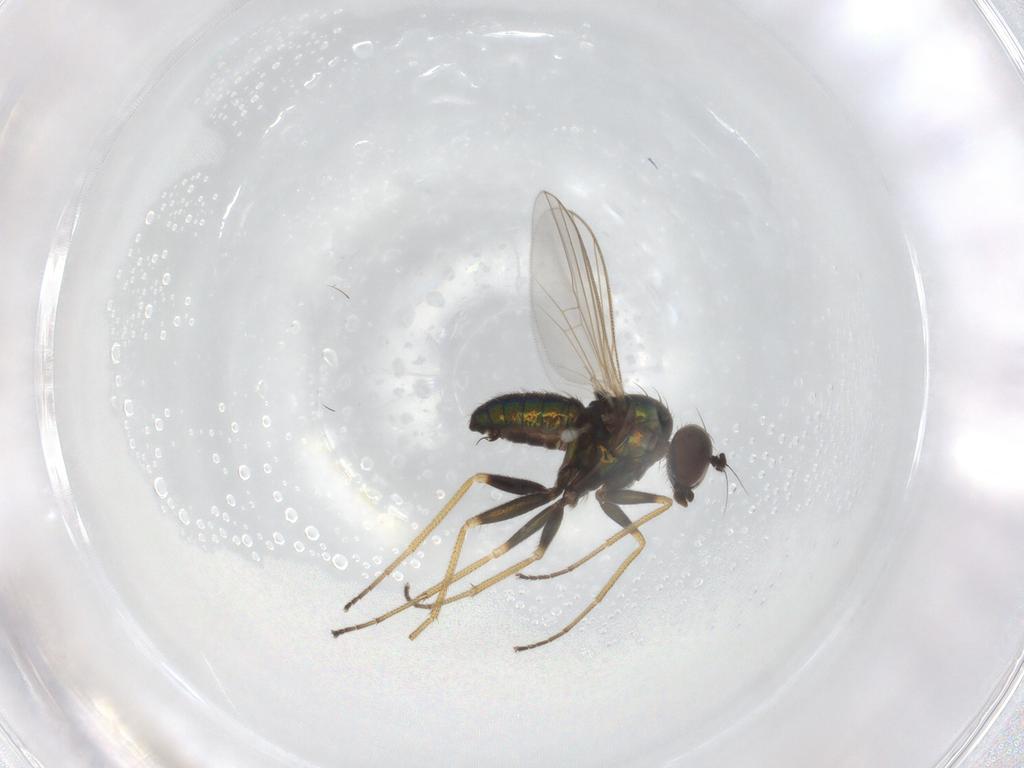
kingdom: Animalia
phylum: Arthropoda
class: Insecta
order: Diptera
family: Dolichopodidae
